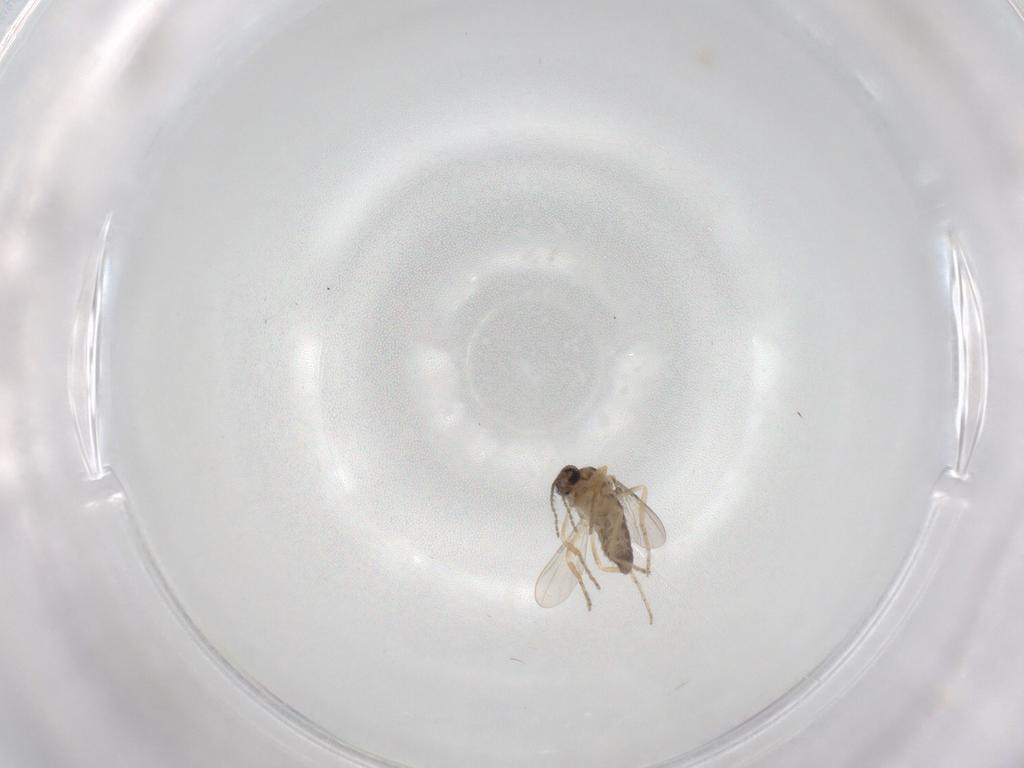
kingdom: Animalia
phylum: Arthropoda
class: Insecta
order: Diptera
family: Ceratopogonidae
